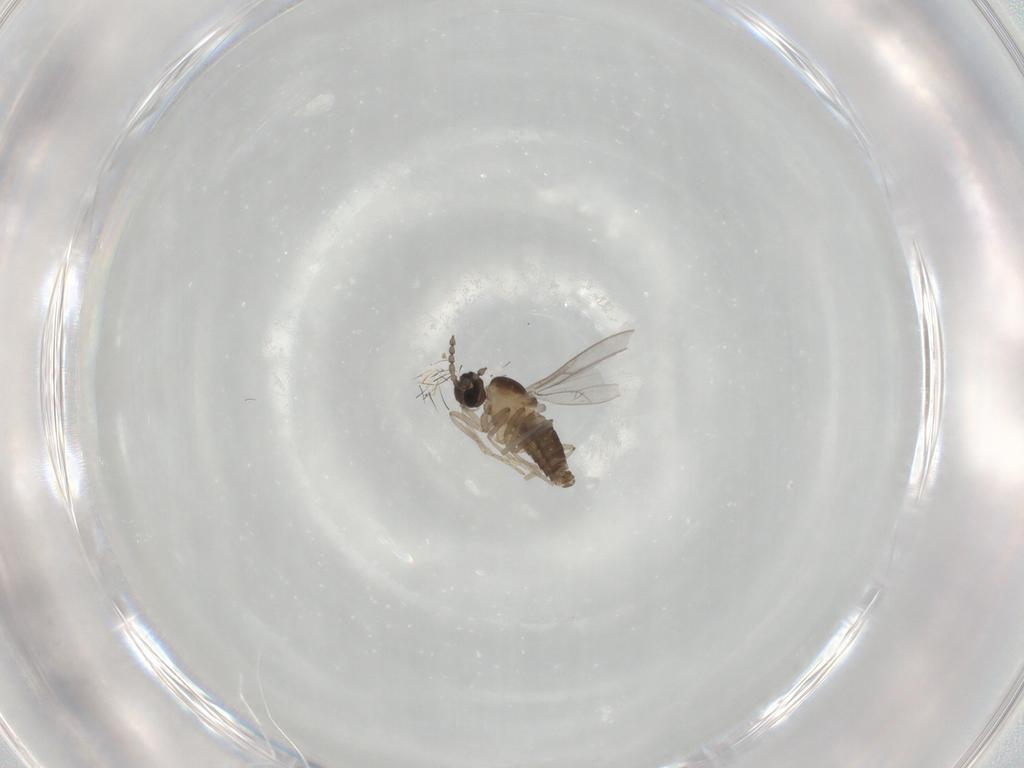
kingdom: Animalia
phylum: Arthropoda
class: Insecta
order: Diptera
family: Cecidomyiidae
